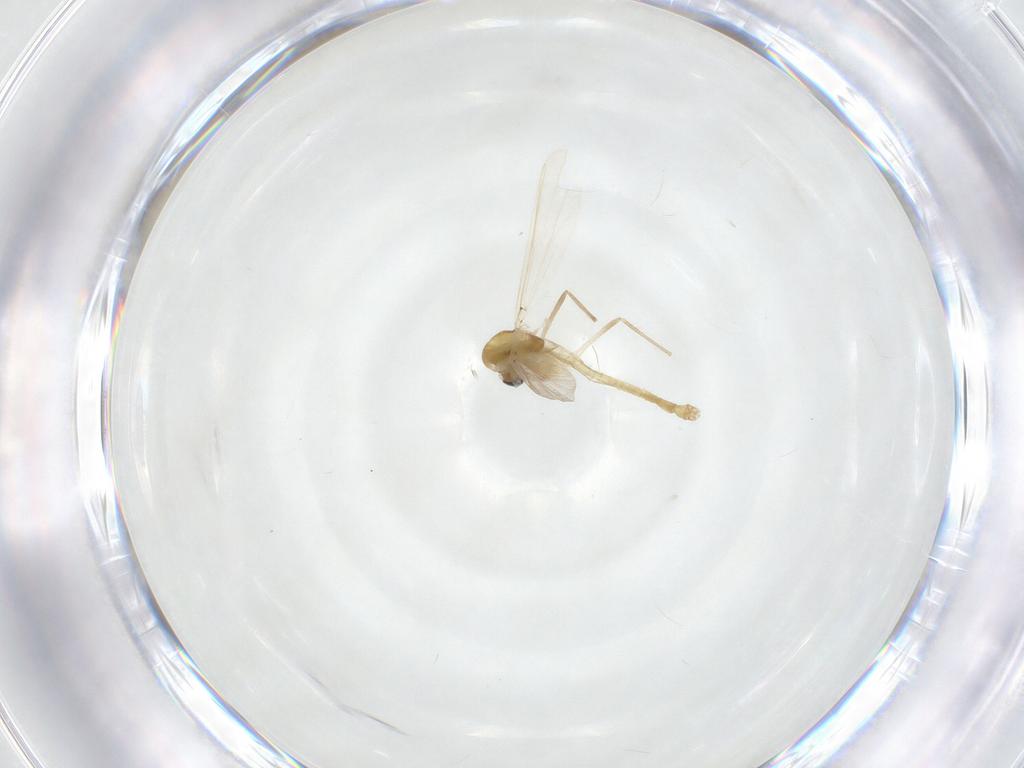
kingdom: Animalia
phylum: Arthropoda
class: Insecta
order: Diptera
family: Chironomidae
